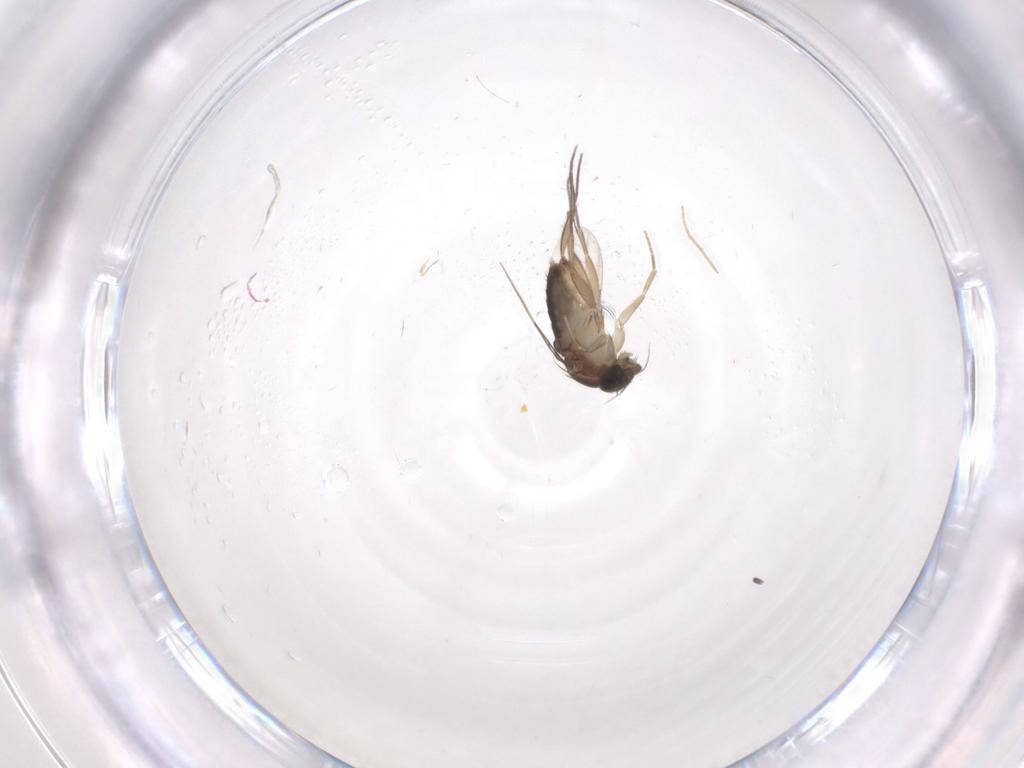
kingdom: Animalia
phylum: Arthropoda
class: Insecta
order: Diptera
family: Phoridae
